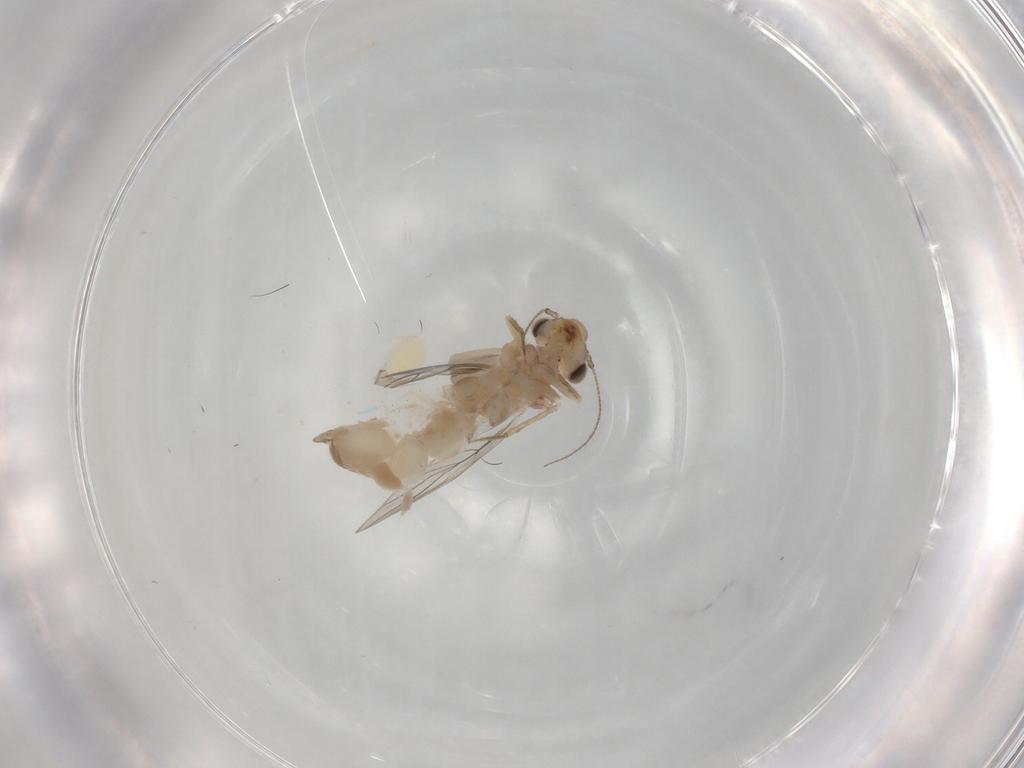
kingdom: Animalia
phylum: Arthropoda
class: Insecta
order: Psocodea
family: Lepidopsocidae
